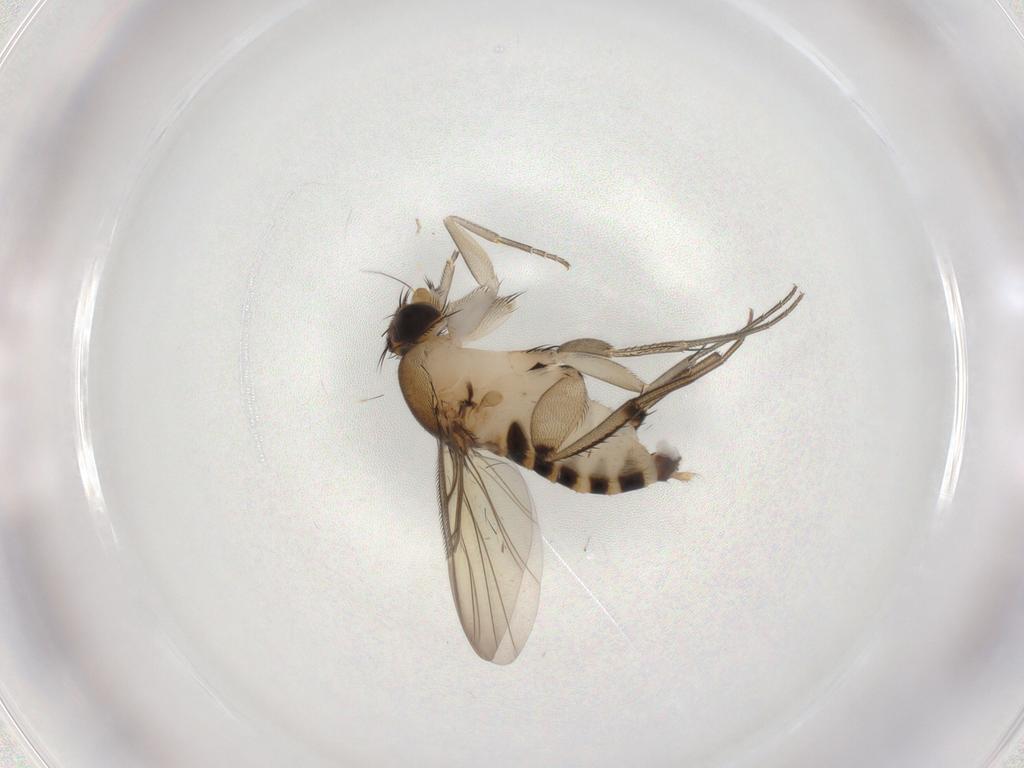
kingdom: Animalia
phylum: Arthropoda
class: Insecta
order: Diptera
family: Phoridae
